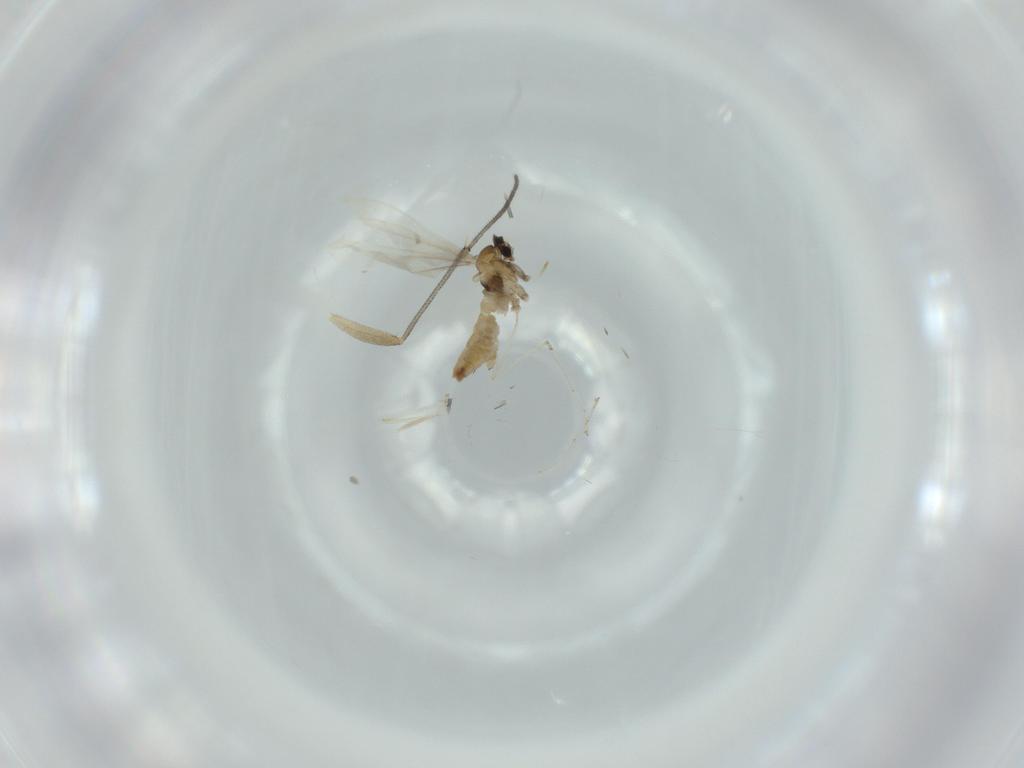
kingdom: Animalia
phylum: Arthropoda
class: Insecta
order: Diptera
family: Cecidomyiidae
